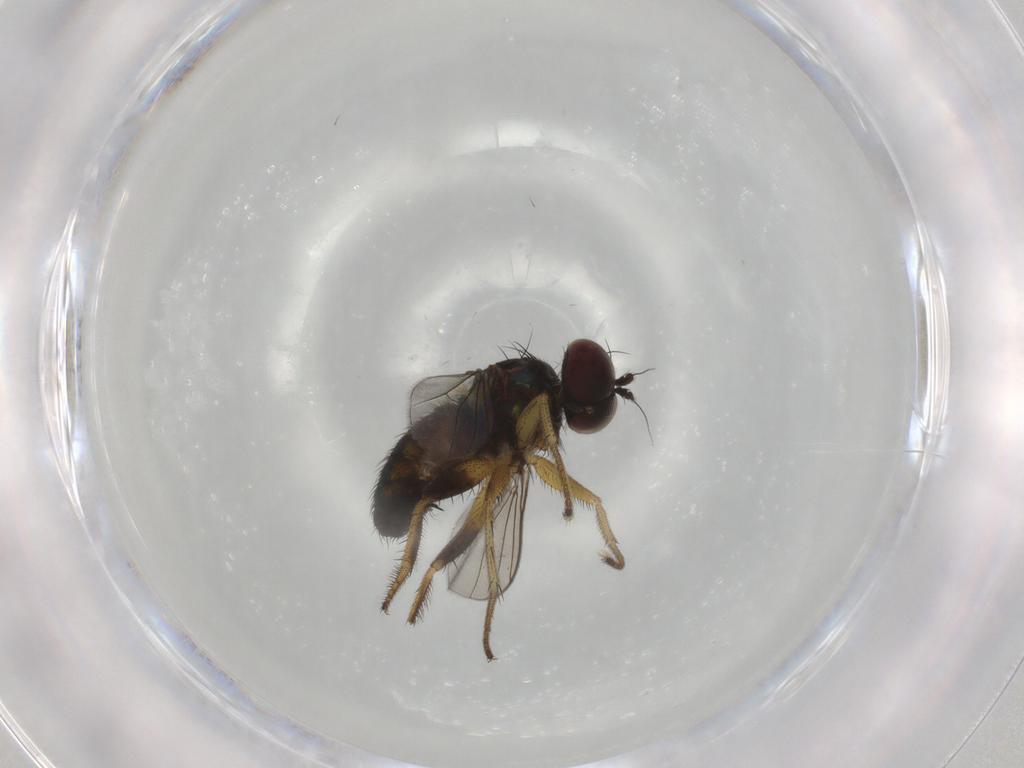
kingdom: Animalia
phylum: Arthropoda
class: Insecta
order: Diptera
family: Dolichopodidae
